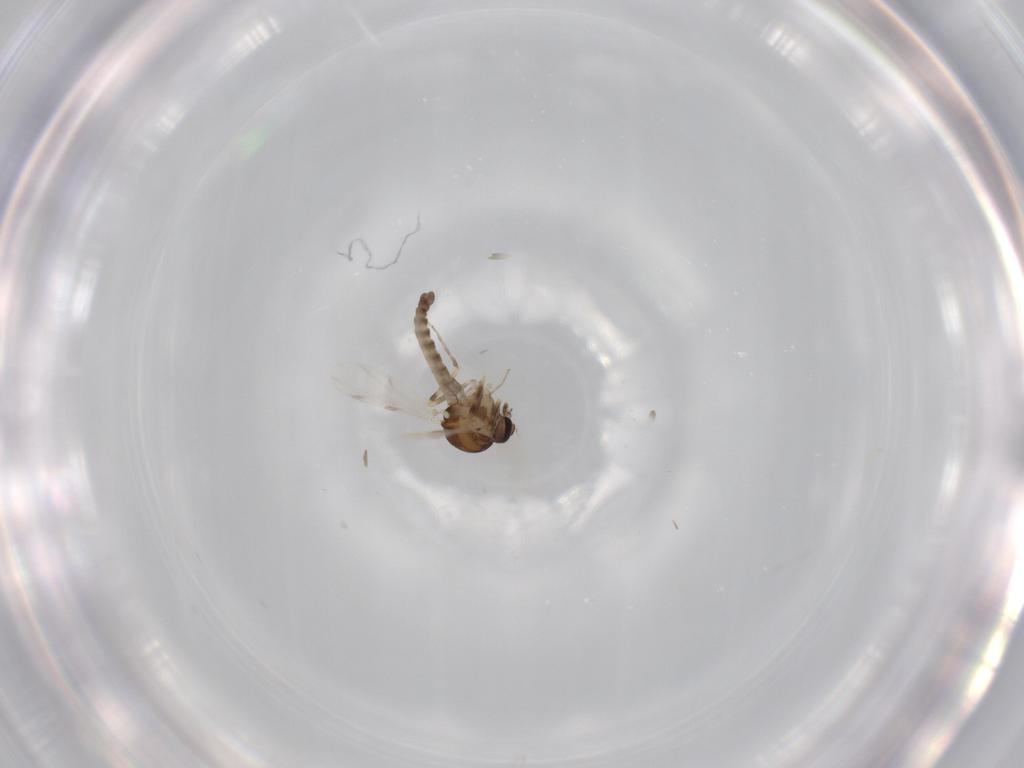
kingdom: Animalia
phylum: Arthropoda
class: Insecta
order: Diptera
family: Ceratopogonidae
